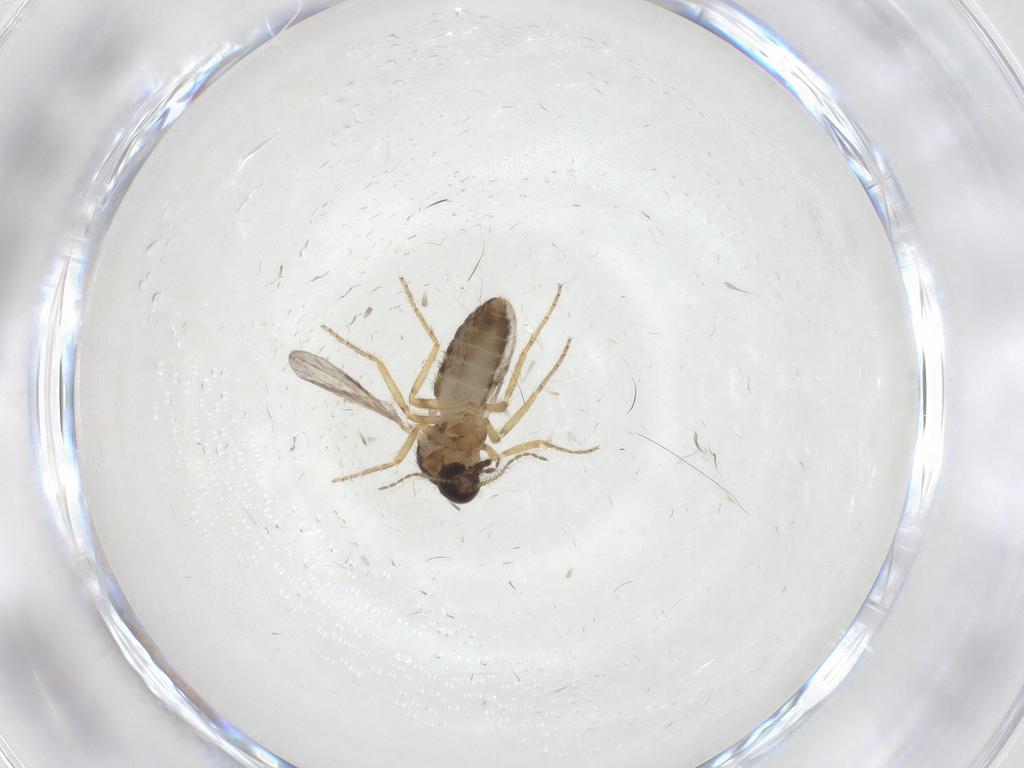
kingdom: Animalia
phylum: Arthropoda
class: Insecta
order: Diptera
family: Ceratopogonidae
